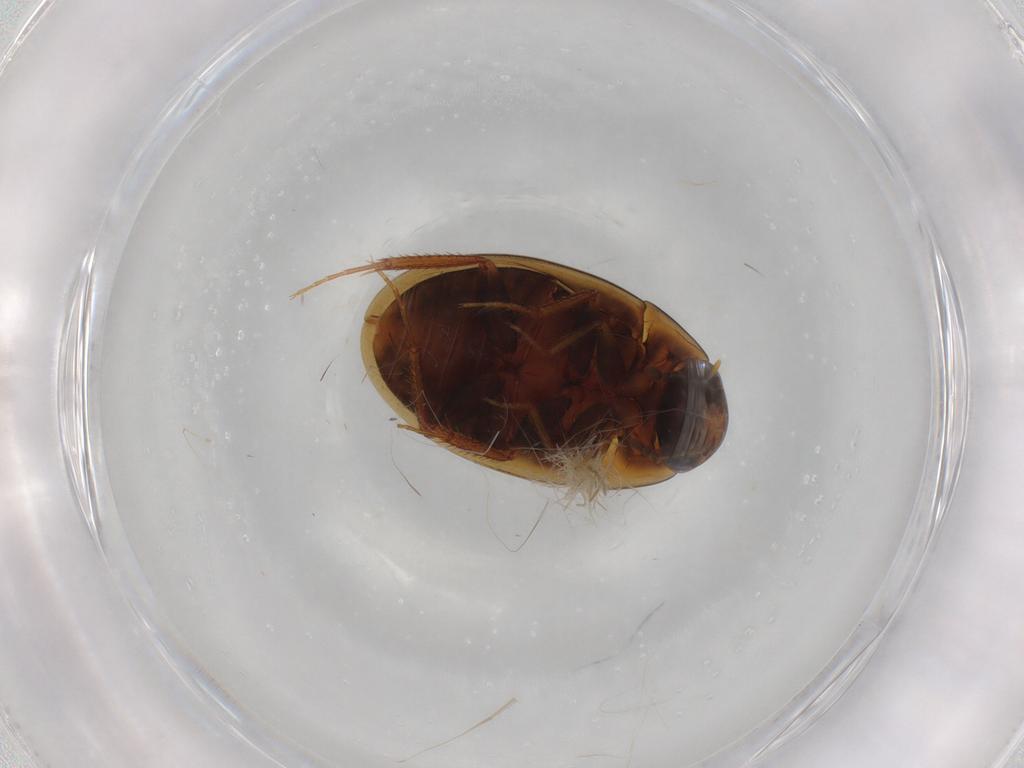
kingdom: Animalia
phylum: Arthropoda
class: Insecta
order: Coleoptera
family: Hydrophilidae
